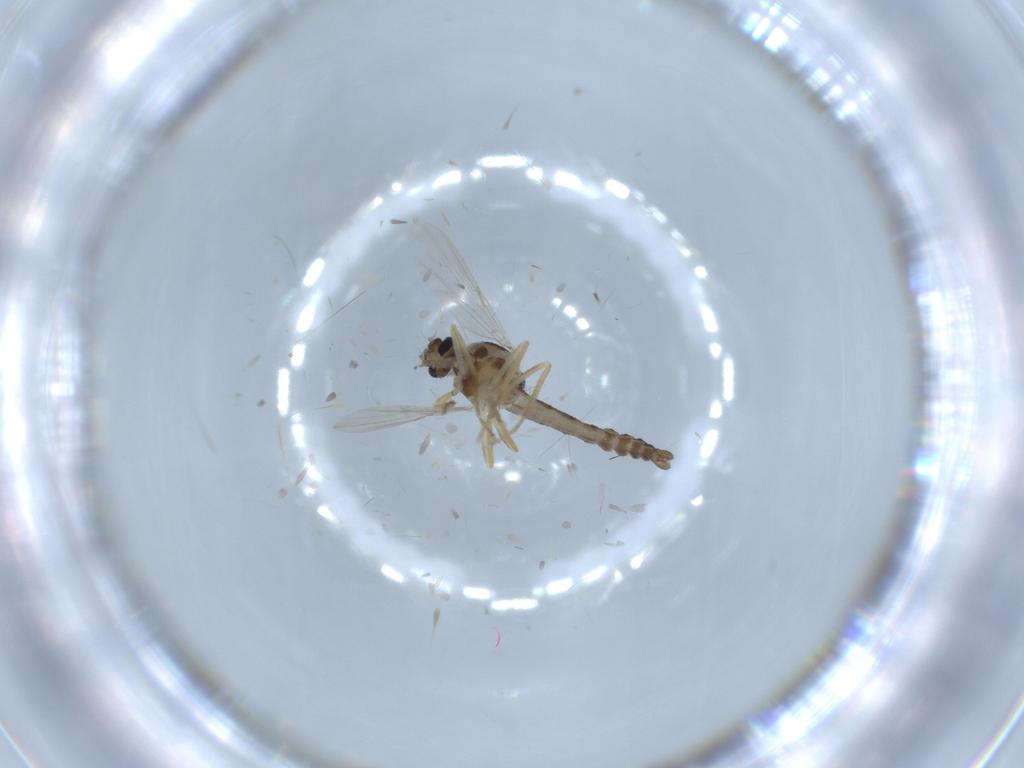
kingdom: Animalia
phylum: Arthropoda
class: Insecta
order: Diptera
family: Ceratopogonidae
